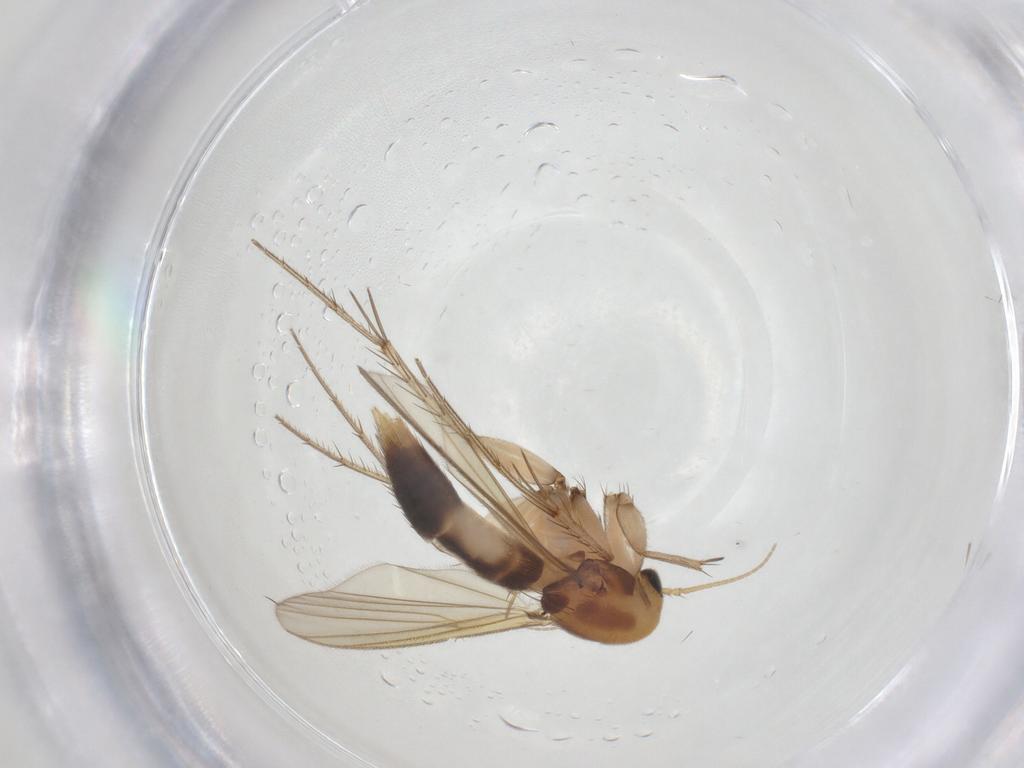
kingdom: Animalia
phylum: Arthropoda
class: Insecta
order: Diptera
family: Mycetophilidae
